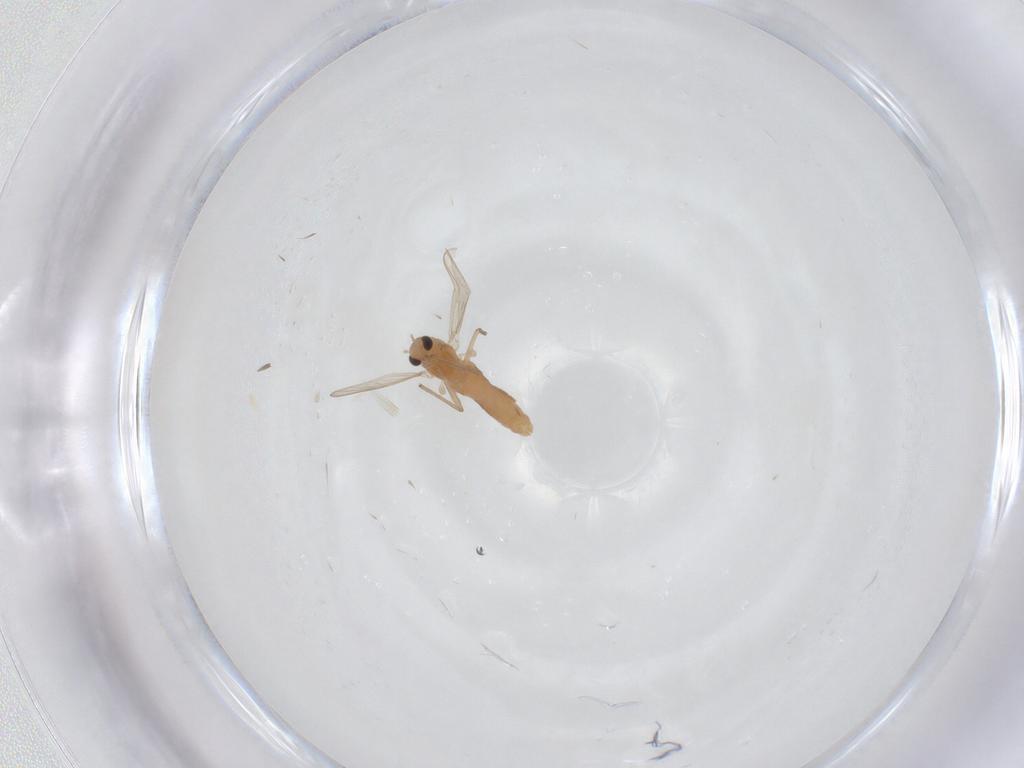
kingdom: Animalia
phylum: Arthropoda
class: Insecta
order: Diptera
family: Chironomidae
